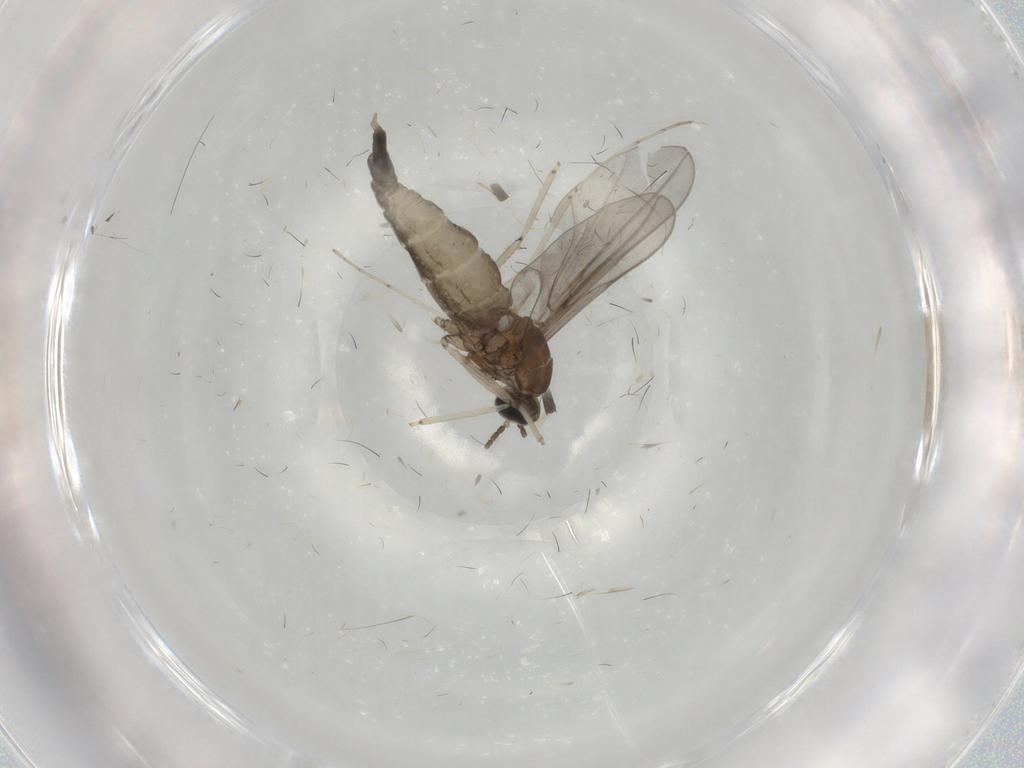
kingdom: Animalia
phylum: Arthropoda
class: Insecta
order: Diptera
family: Cecidomyiidae
